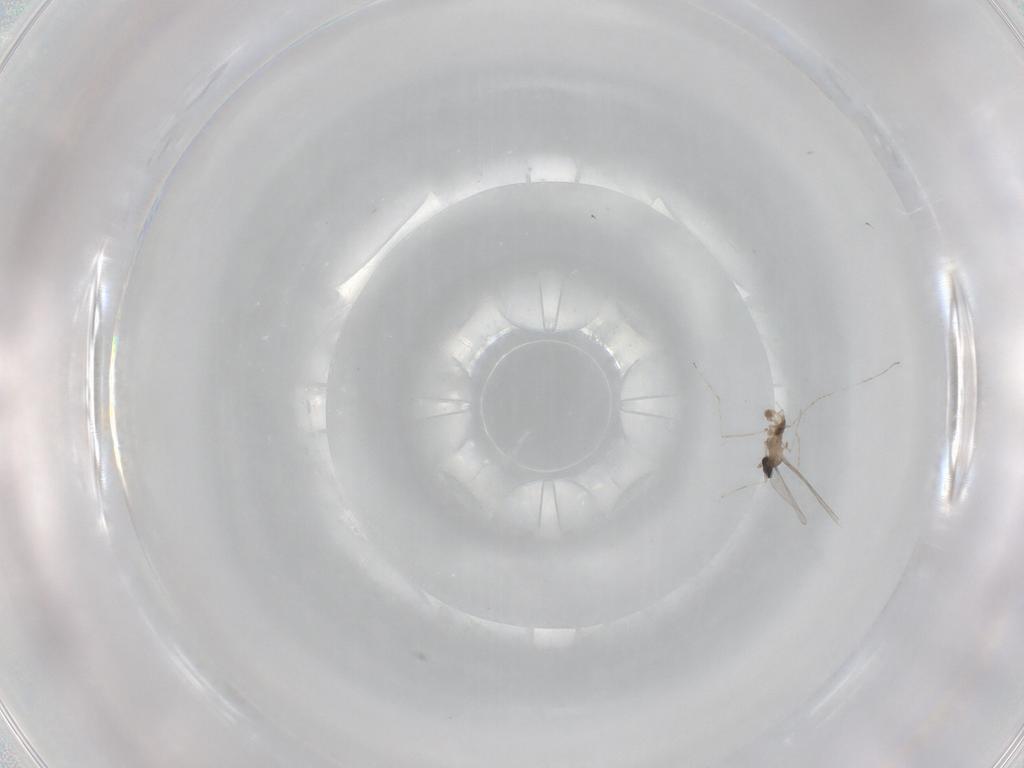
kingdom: Animalia
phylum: Arthropoda
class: Insecta
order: Diptera
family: Cecidomyiidae
